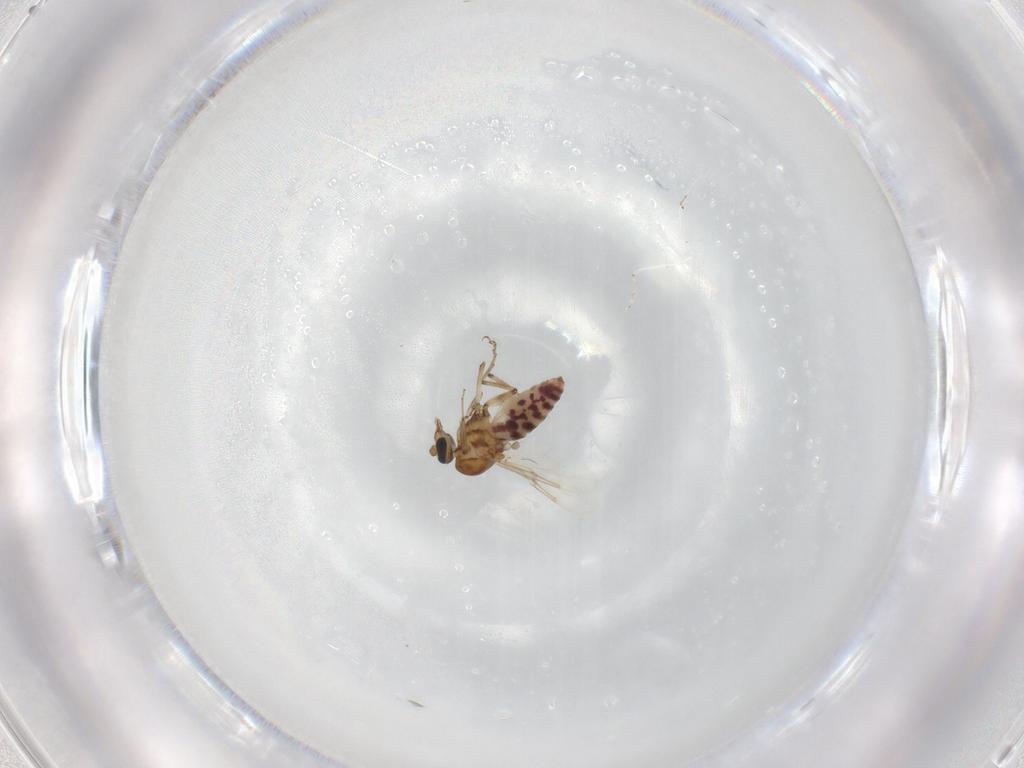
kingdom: Animalia
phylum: Arthropoda
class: Insecta
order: Diptera
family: Ceratopogonidae
